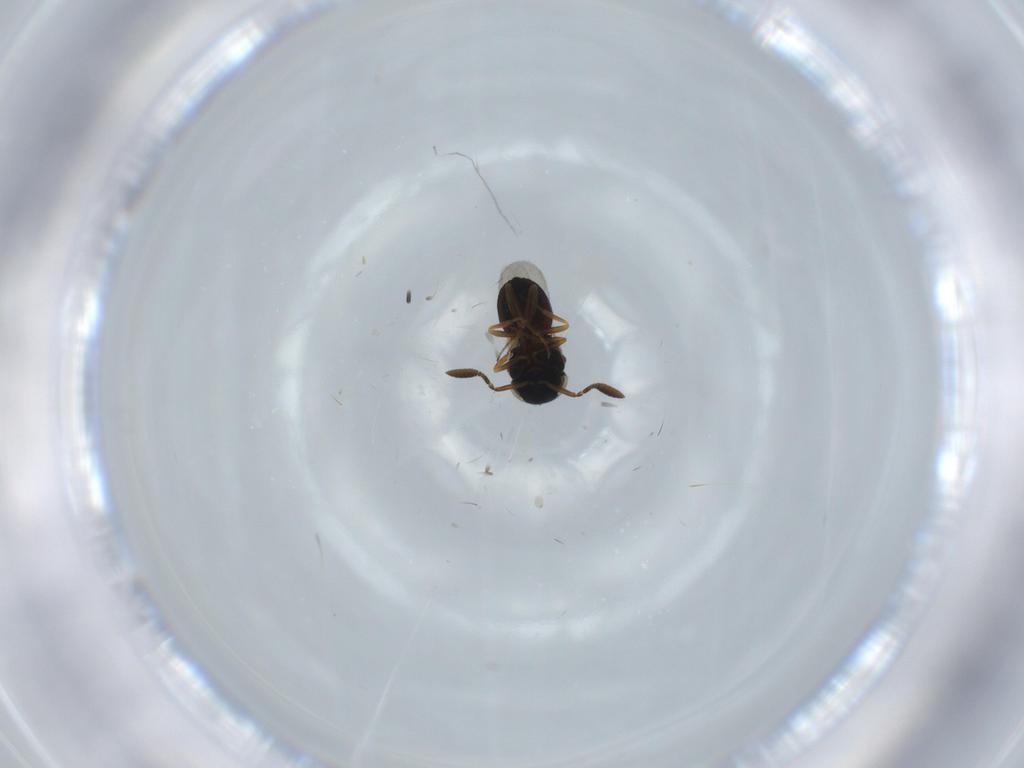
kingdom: Animalia
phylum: Arthropoda
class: Insecta
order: Hymenoptera
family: Scelionidae
